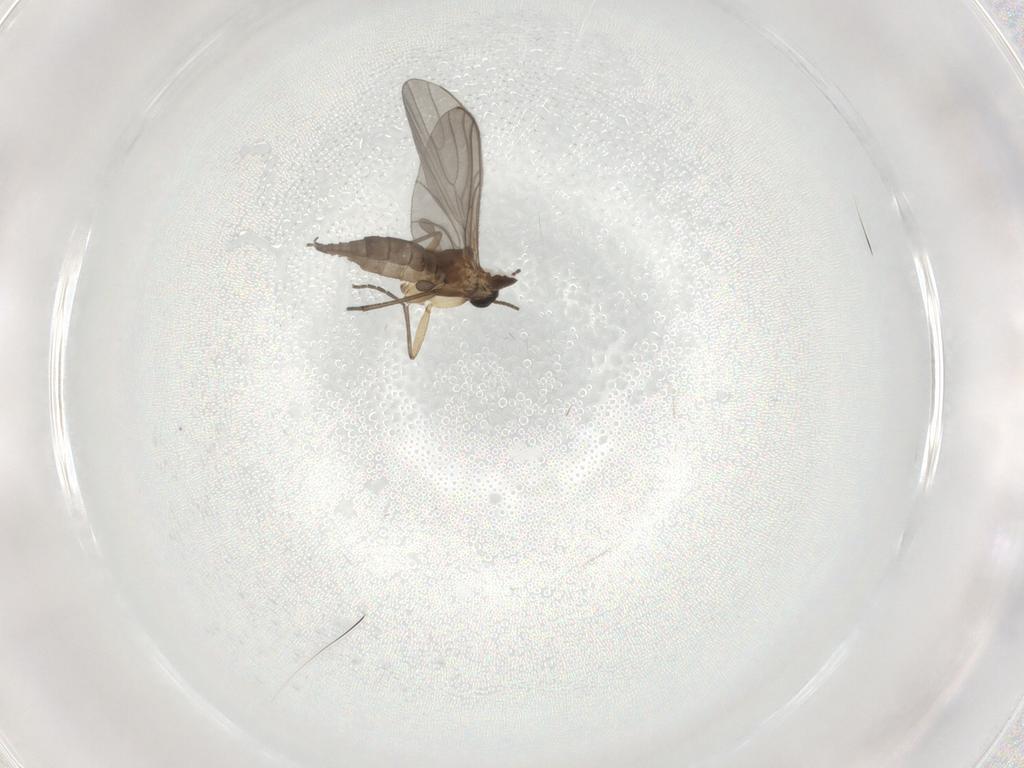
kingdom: Animalia
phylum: Arthropoda
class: Insecta
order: Diptera
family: Sciaridae
